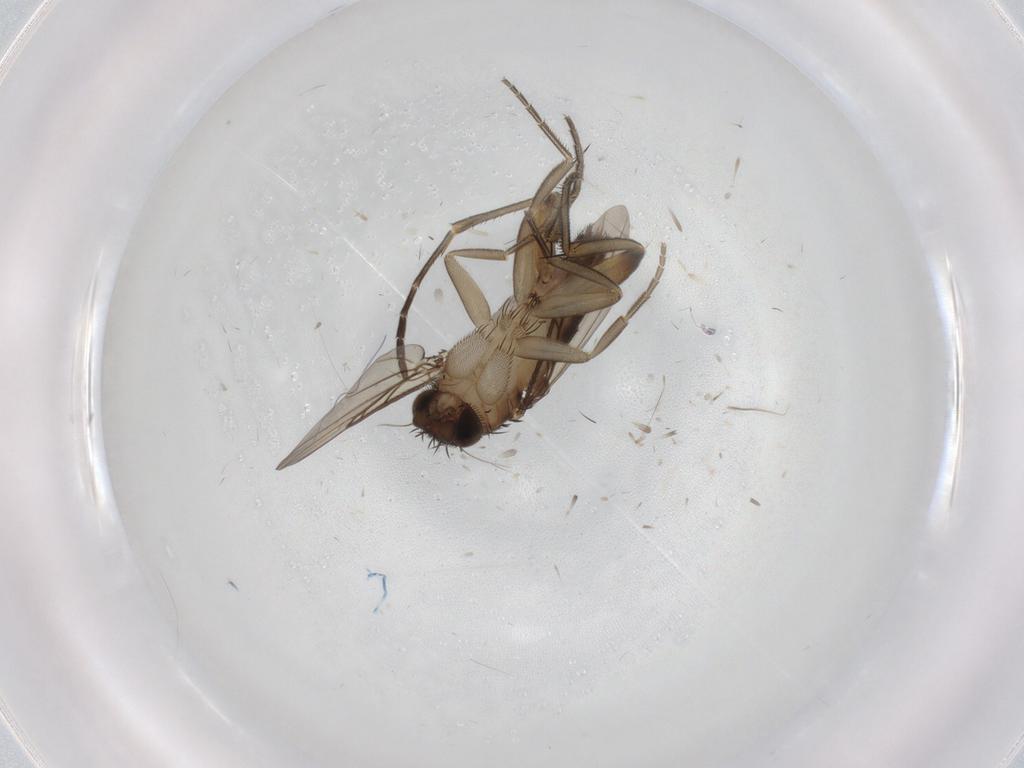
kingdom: Animalia
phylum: Arthropoda
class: Insecta
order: Diptera
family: Phoridae
